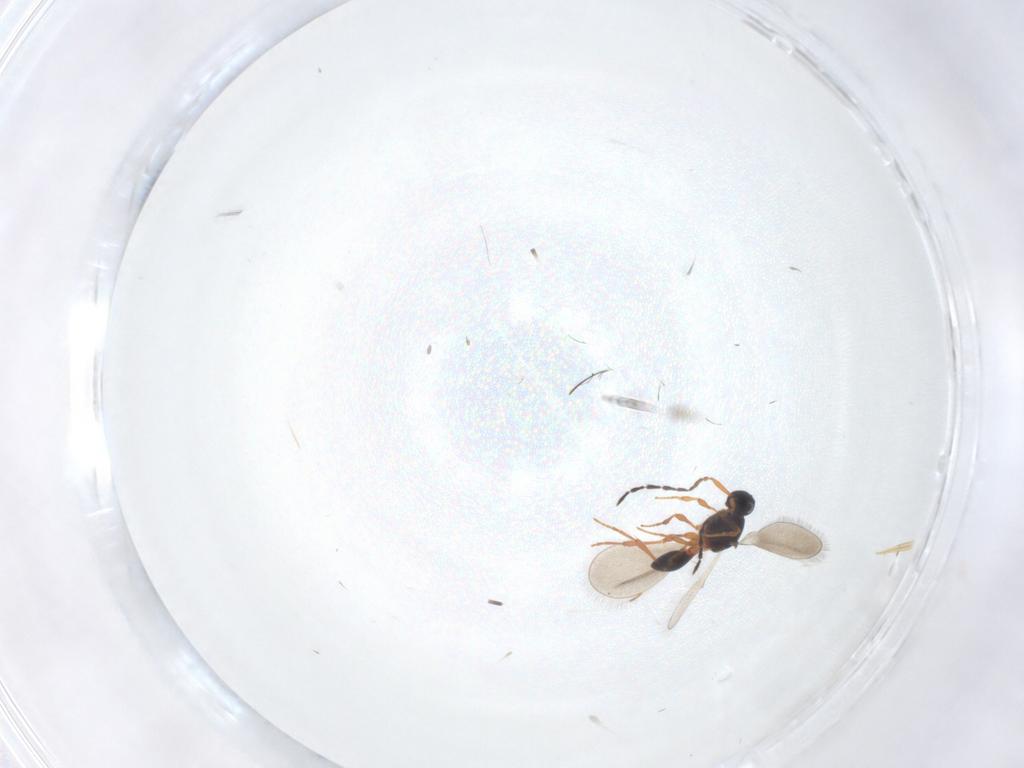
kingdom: Animalia
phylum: Arthropoda
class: Insecta
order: Hymenoptera
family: Platygastridae
